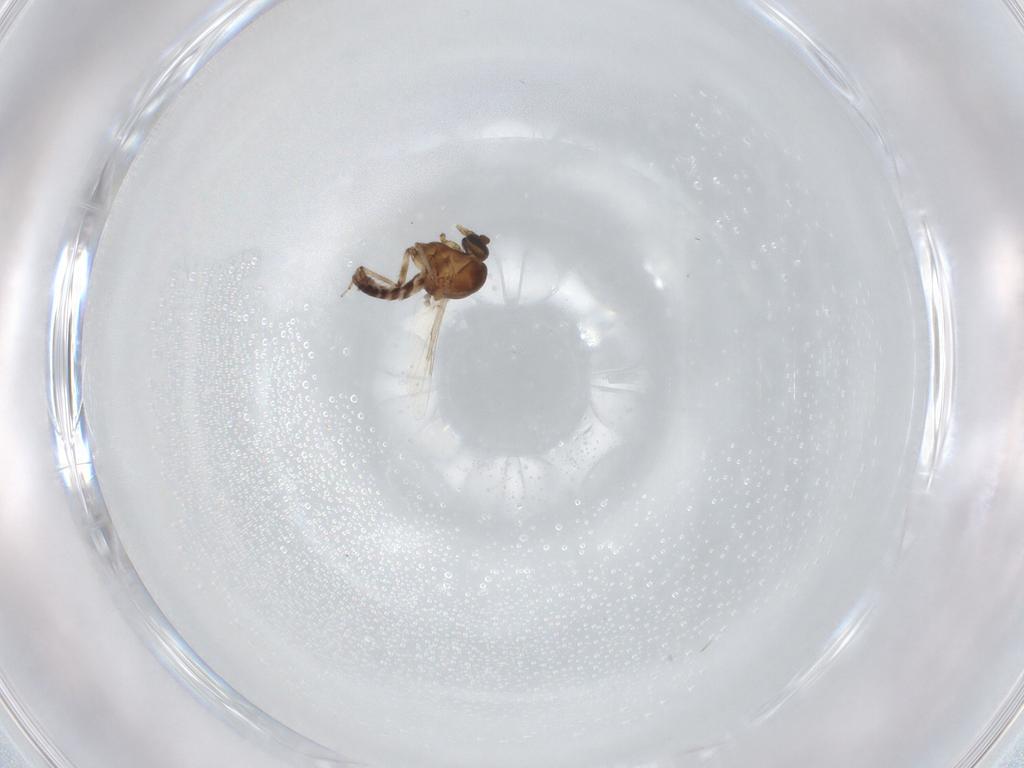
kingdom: Animalia
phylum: Arthropoda
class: Insecta
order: Diptera
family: Ceratopogonidae
